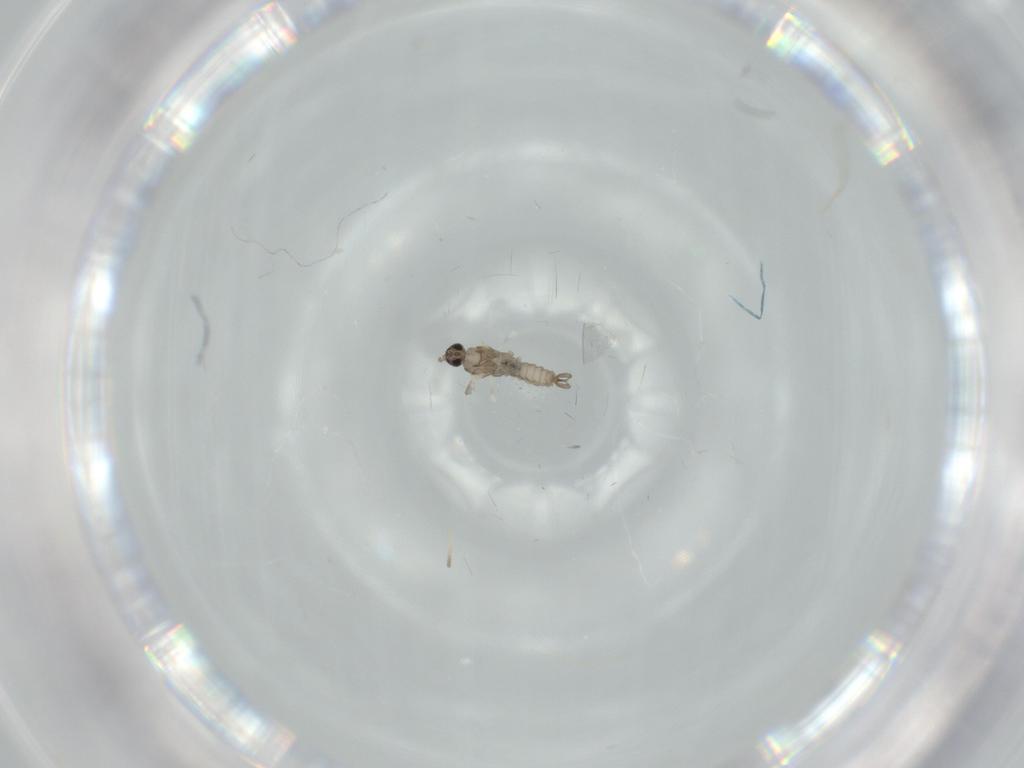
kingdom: Animalia
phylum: Arthropoda
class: Insecta
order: Diptera
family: Cecidomyiidae
